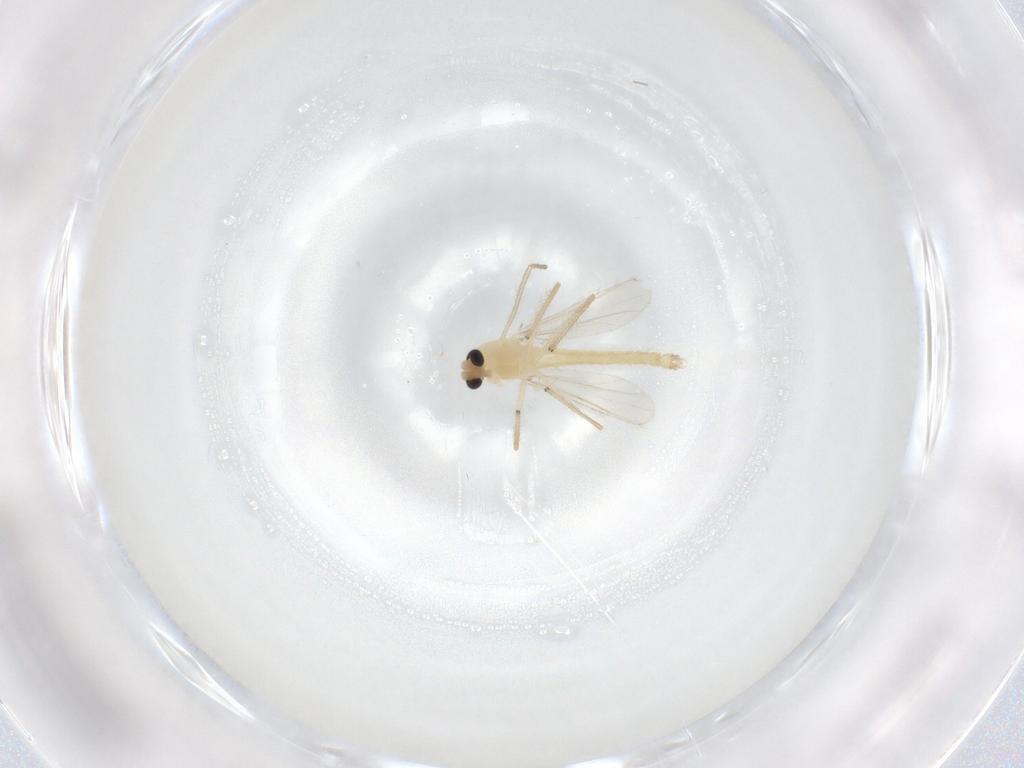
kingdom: Animalia
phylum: Arthropoda
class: Insecta
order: Diptera
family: Chironomidae
